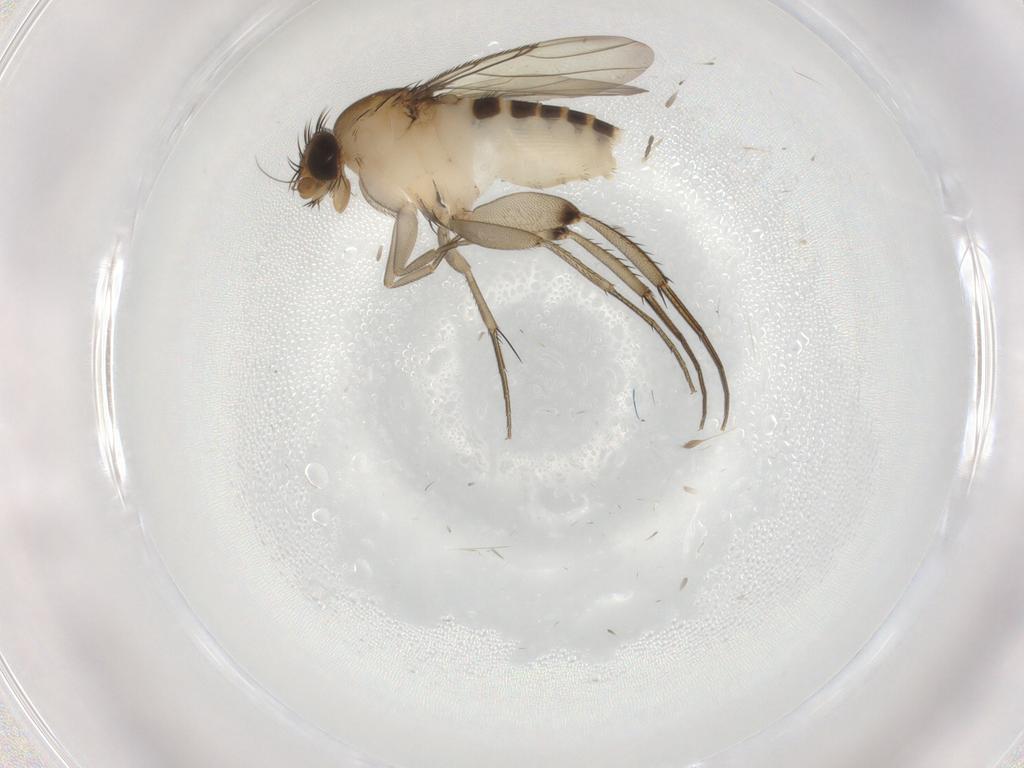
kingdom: Animalia
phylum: Arthropoda
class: Insecta
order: Diptera
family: Phoridae
